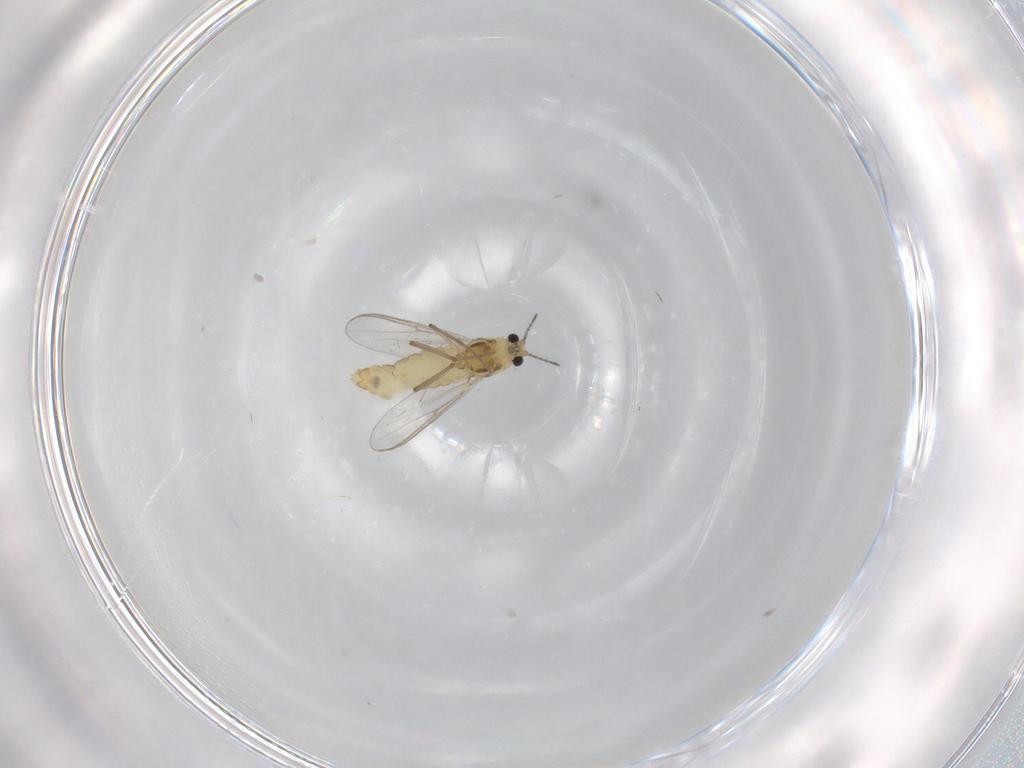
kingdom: Animalia
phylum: Arthropoda
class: Insecta
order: Diptera
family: Chironomidae
